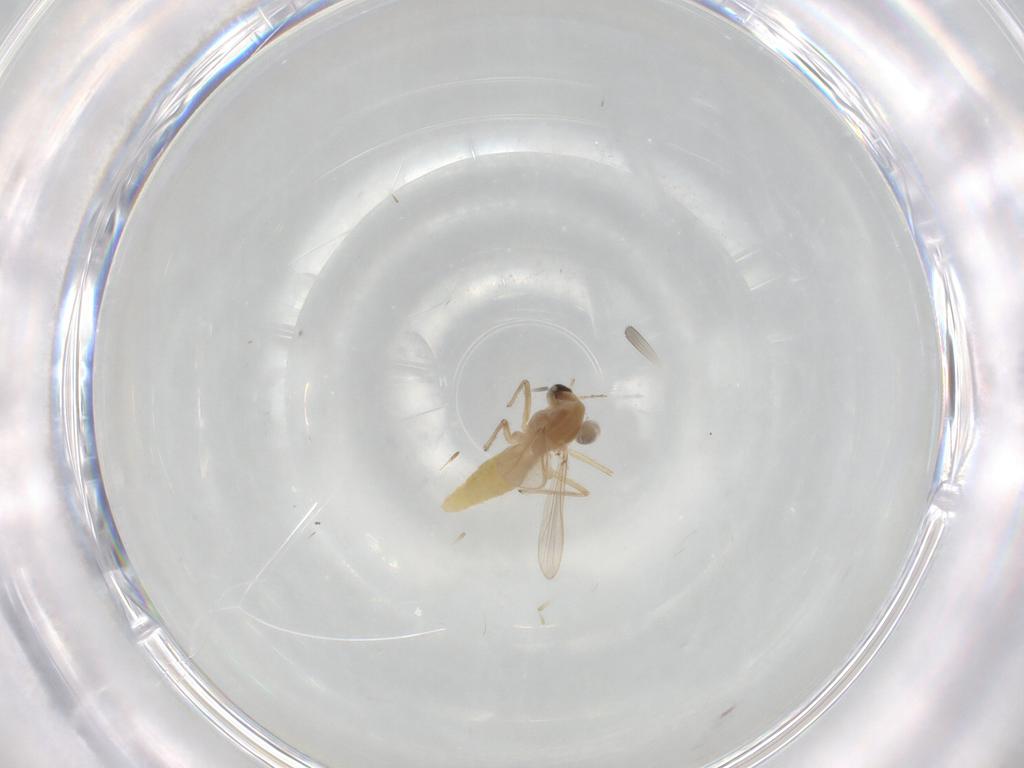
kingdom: Animalia
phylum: Arthropoda
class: Insecta
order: Diptera
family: Chironomidae
